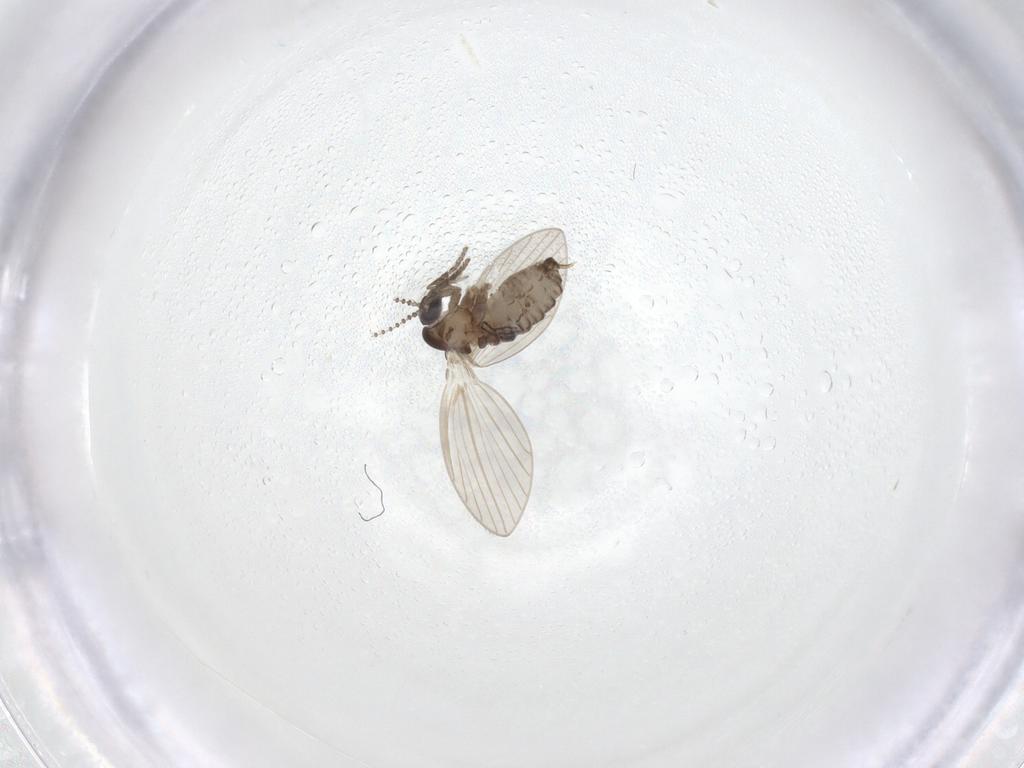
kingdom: Animalia
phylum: Arthropoda
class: Insecta
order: Diptera
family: Psychodidae
